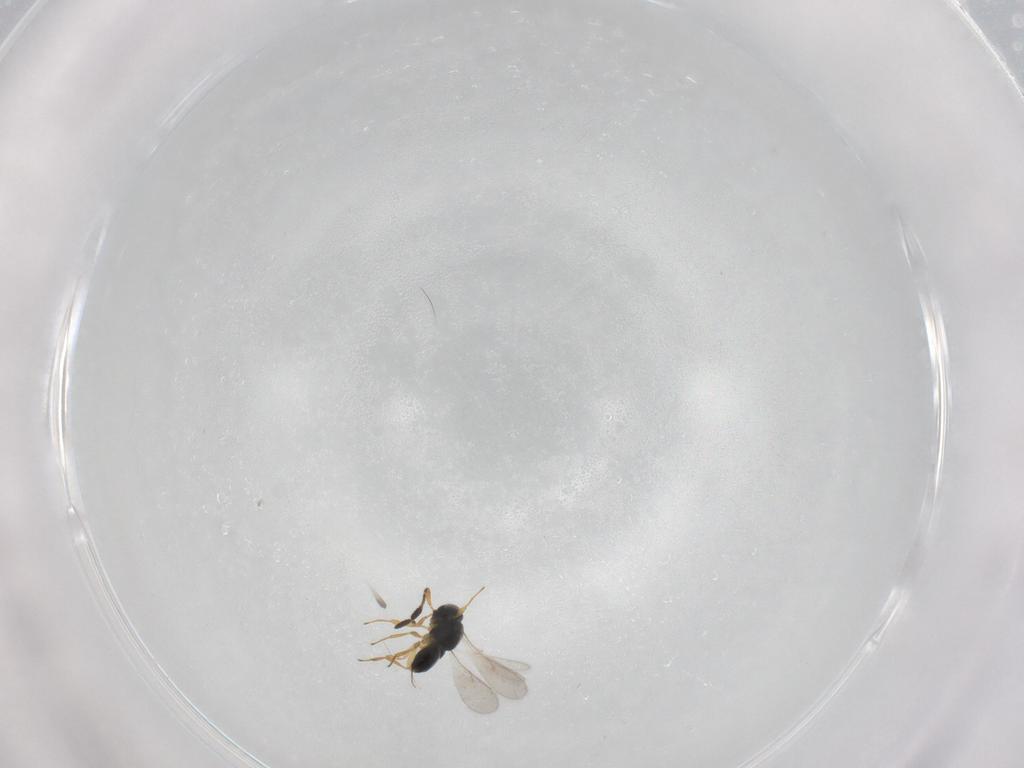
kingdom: Animalia
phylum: Arthropoda
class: Insecta
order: Hymenoptera
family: Scelionidae
